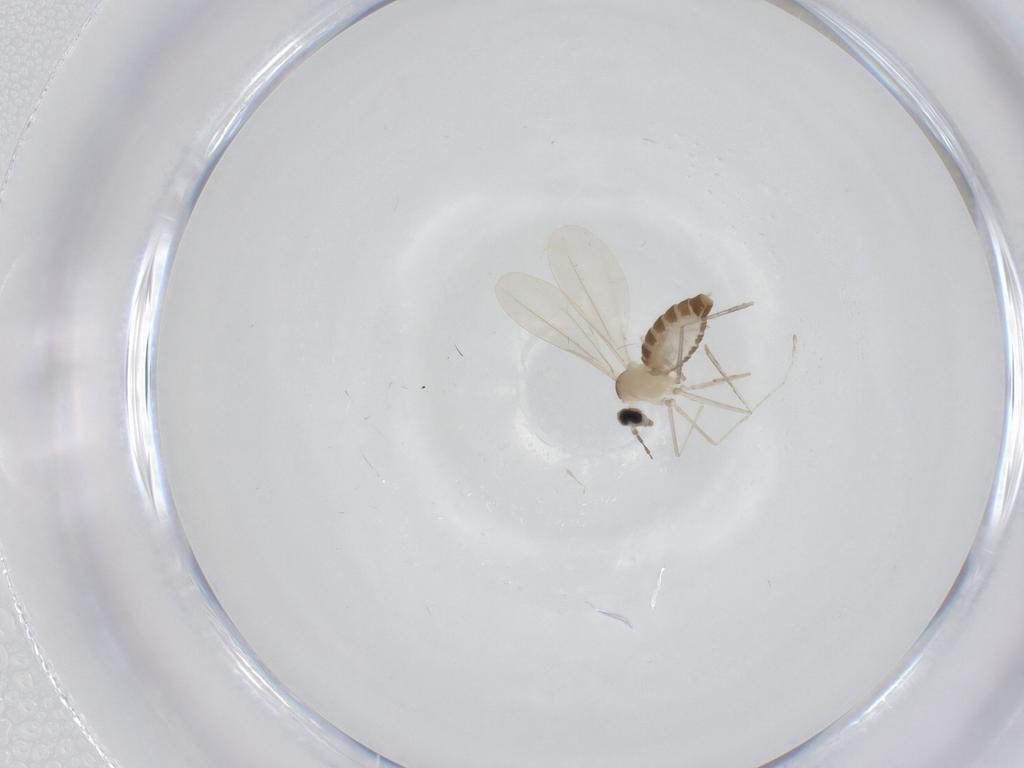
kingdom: Animalia
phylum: Arthropoda
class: Insecta
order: Diptera
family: Cecidomyiidae
